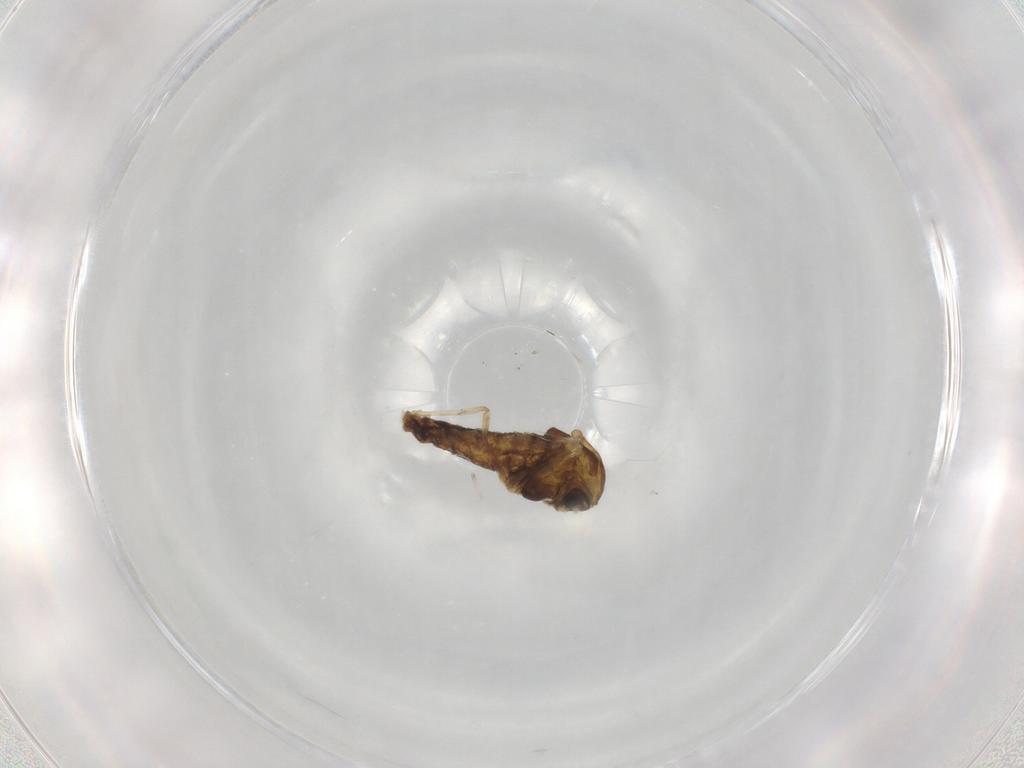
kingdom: Animalia
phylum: Arthropoda
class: Insecta
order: Diptera
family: Chironomidae
